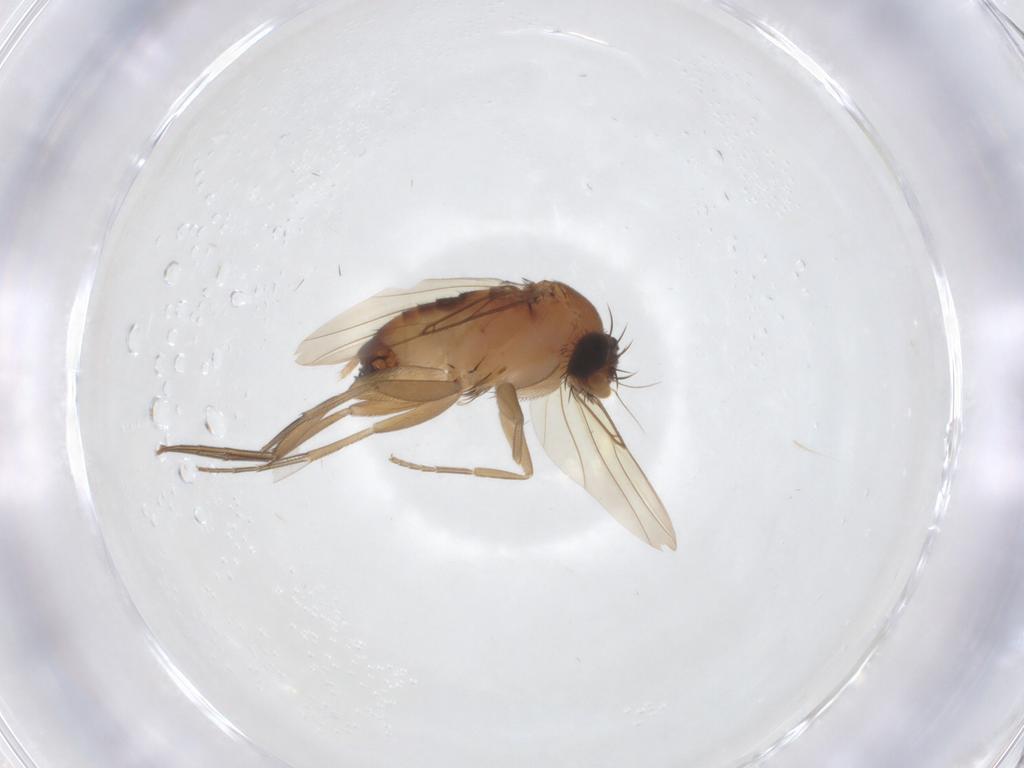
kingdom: Animalia
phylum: Arthropoda
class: Insecta
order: Diptera
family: Phoridae
